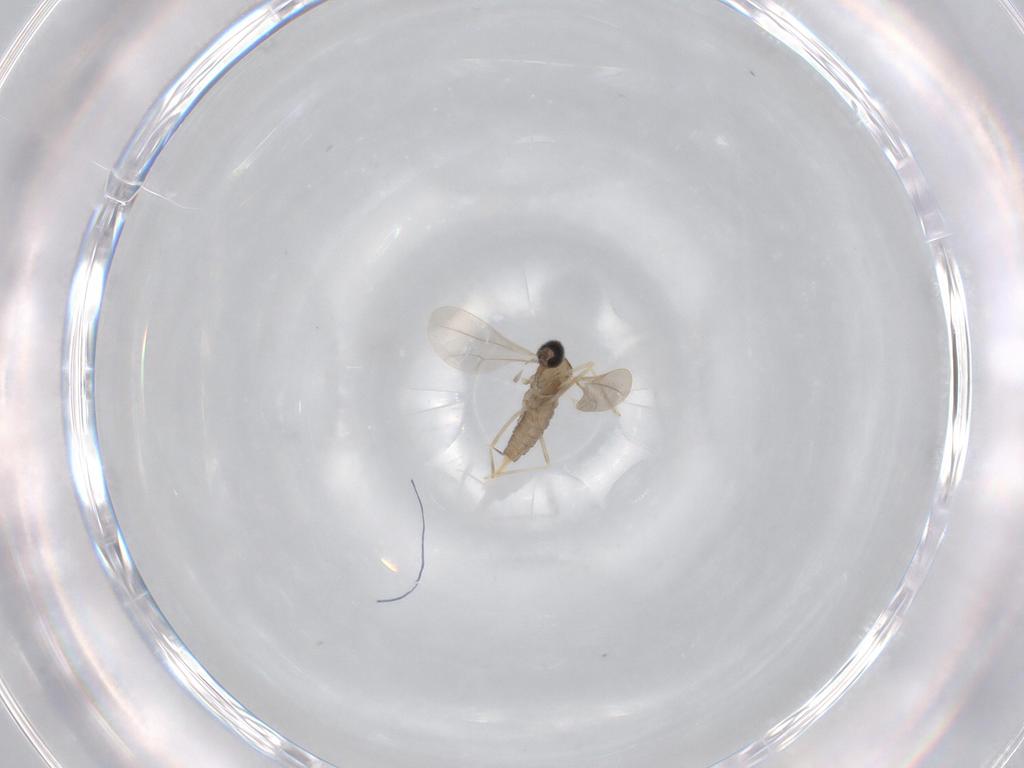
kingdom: Animalia
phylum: Arthropoda
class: Insecta
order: Diptera
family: Cecidomyiidae
